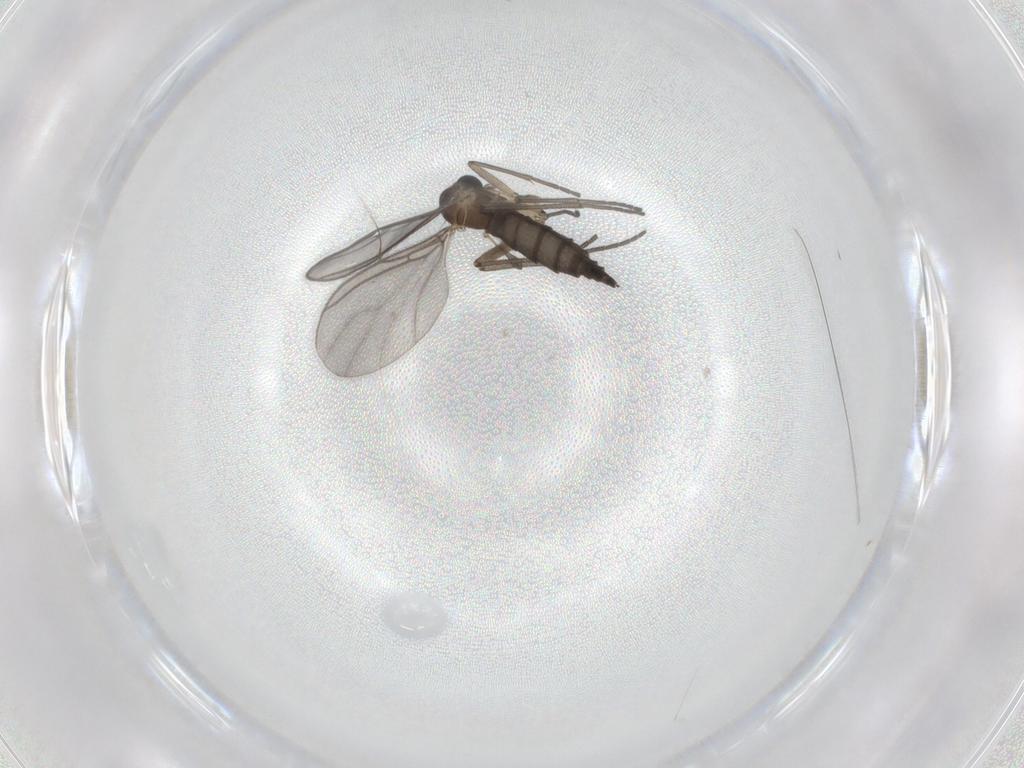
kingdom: Animalia
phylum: Arthropoda
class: Insecta
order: Diptera
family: Sciaridae
